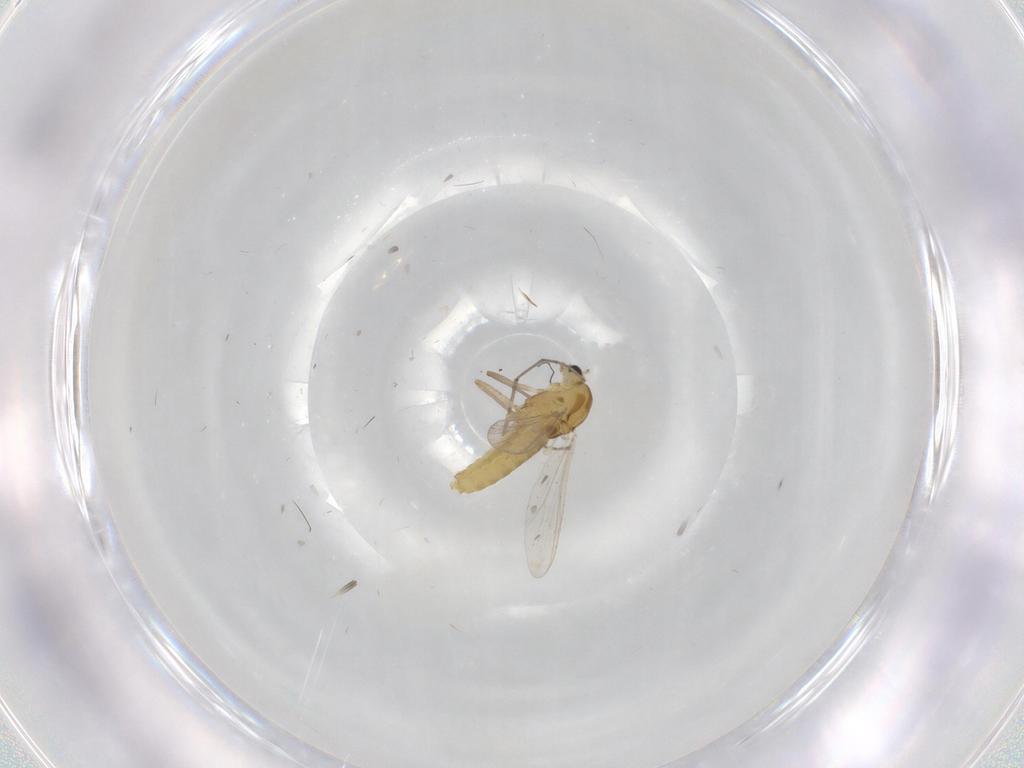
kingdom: Animalia
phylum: Arthropoda
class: Insecta
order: Diptera
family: Chironomidae
